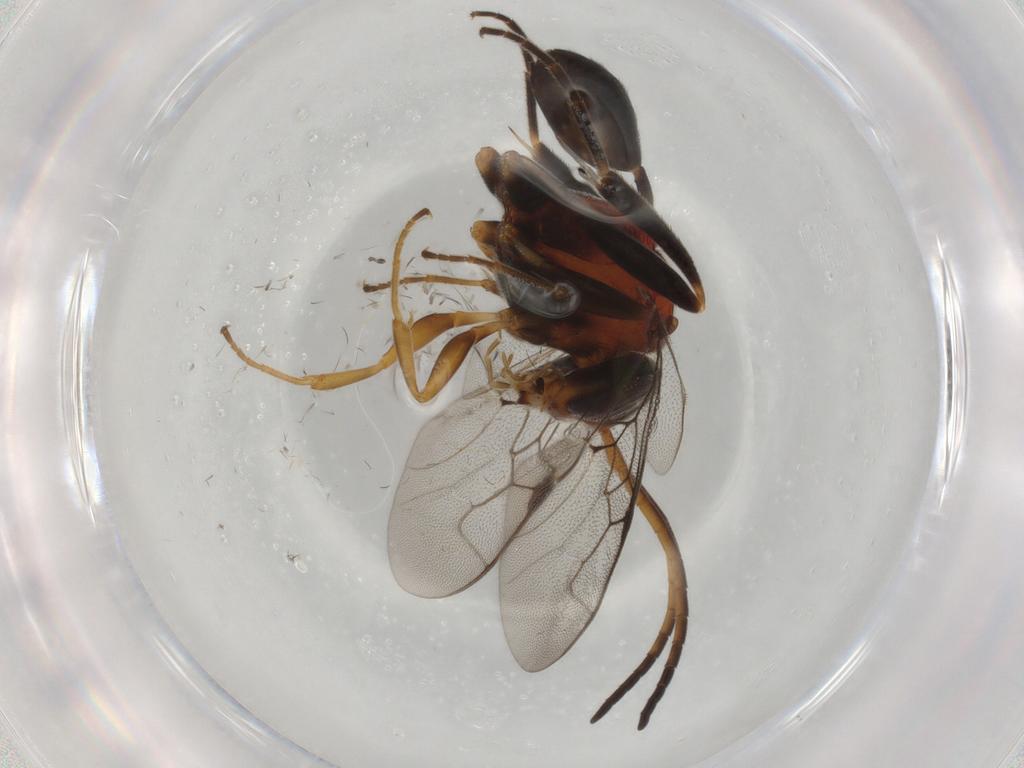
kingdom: Animalia
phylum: Arthropoda
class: Insecta
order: Hymenoptera
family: Evaniidae
